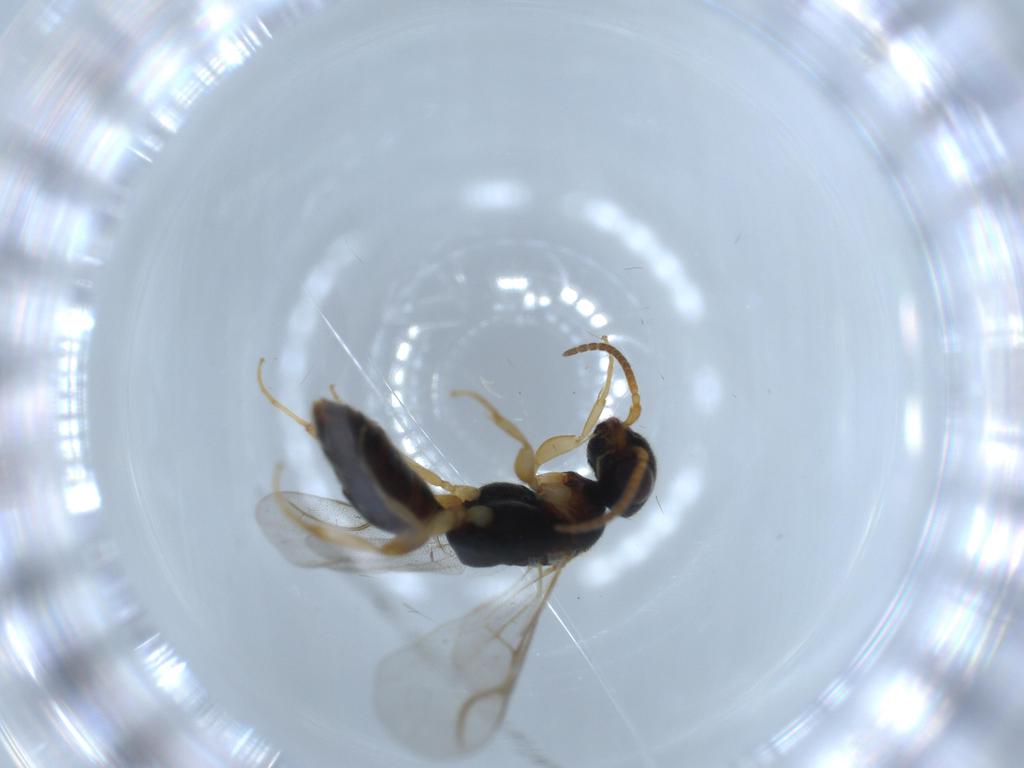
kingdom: Animalia
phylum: Arthropoda
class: Insecta
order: Hymenoptera
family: Bethylidae
